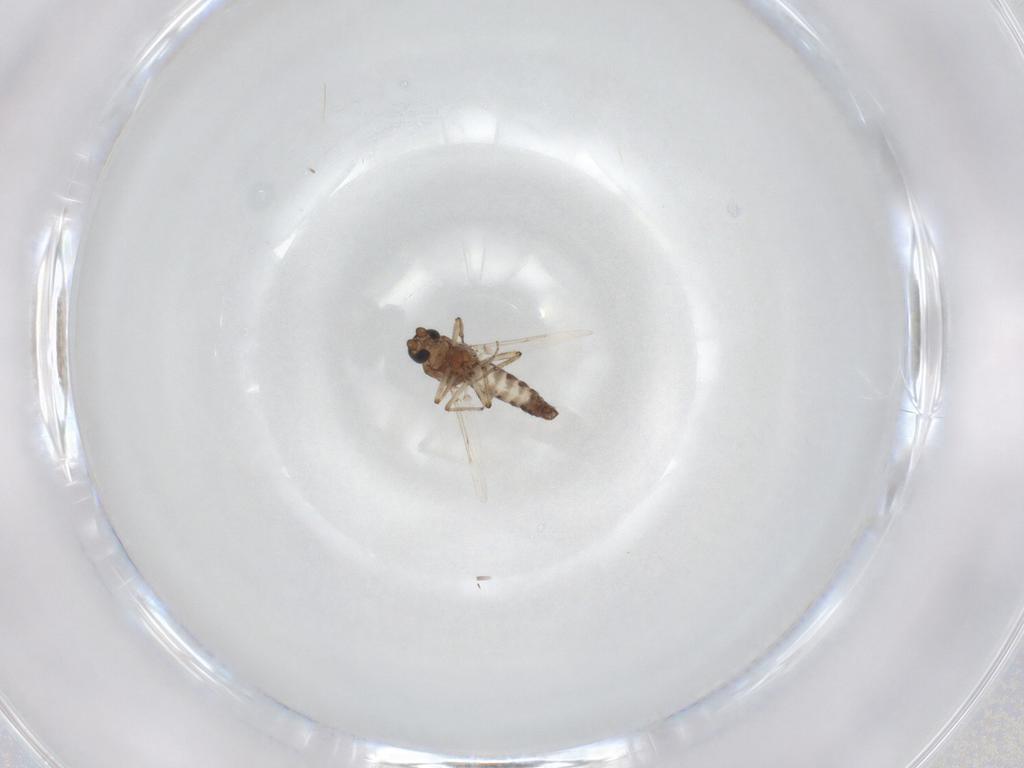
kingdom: Animalia
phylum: Arthropoda
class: Insecta
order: Diptera
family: Ceratopogonidae
